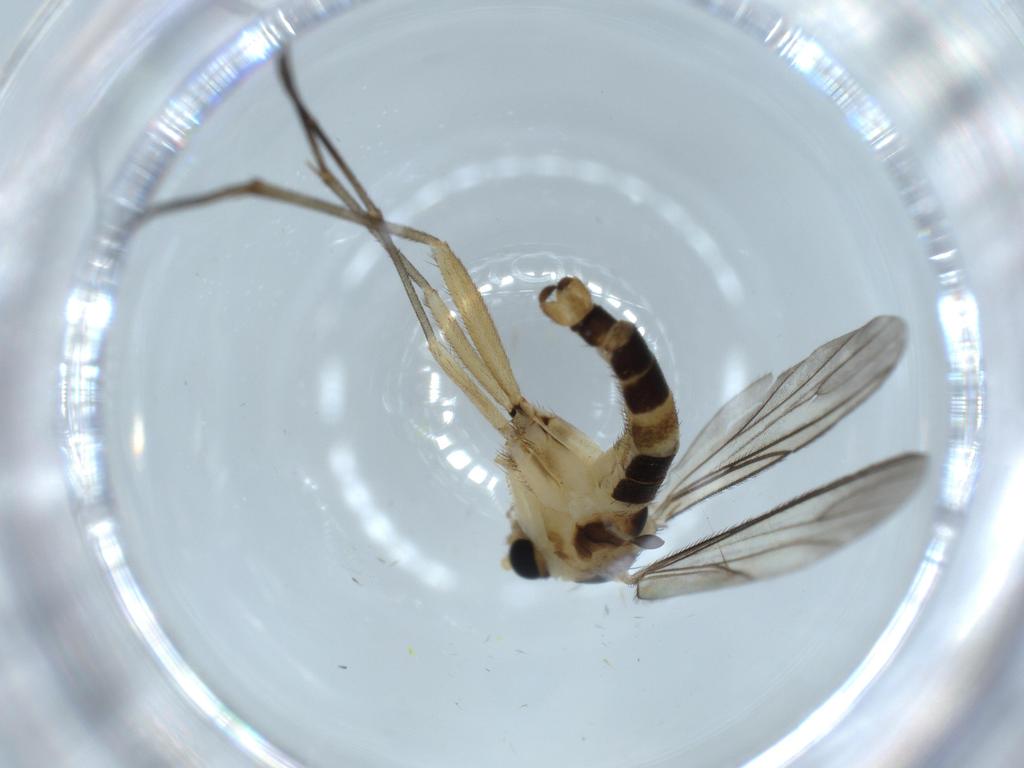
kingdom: Animalia
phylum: Arthropoda
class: Insecta
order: Diptera
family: Sciaridae
